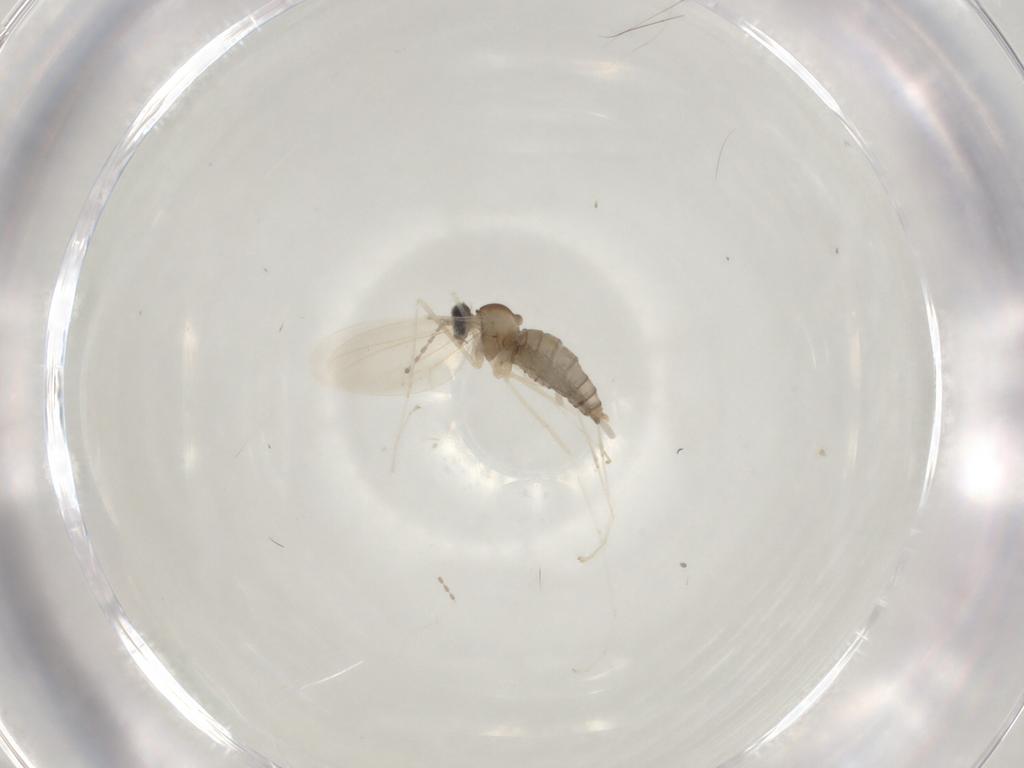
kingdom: Animalia
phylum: Arthropoda
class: Insecta
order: Diptera
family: Cecidomyiidae
